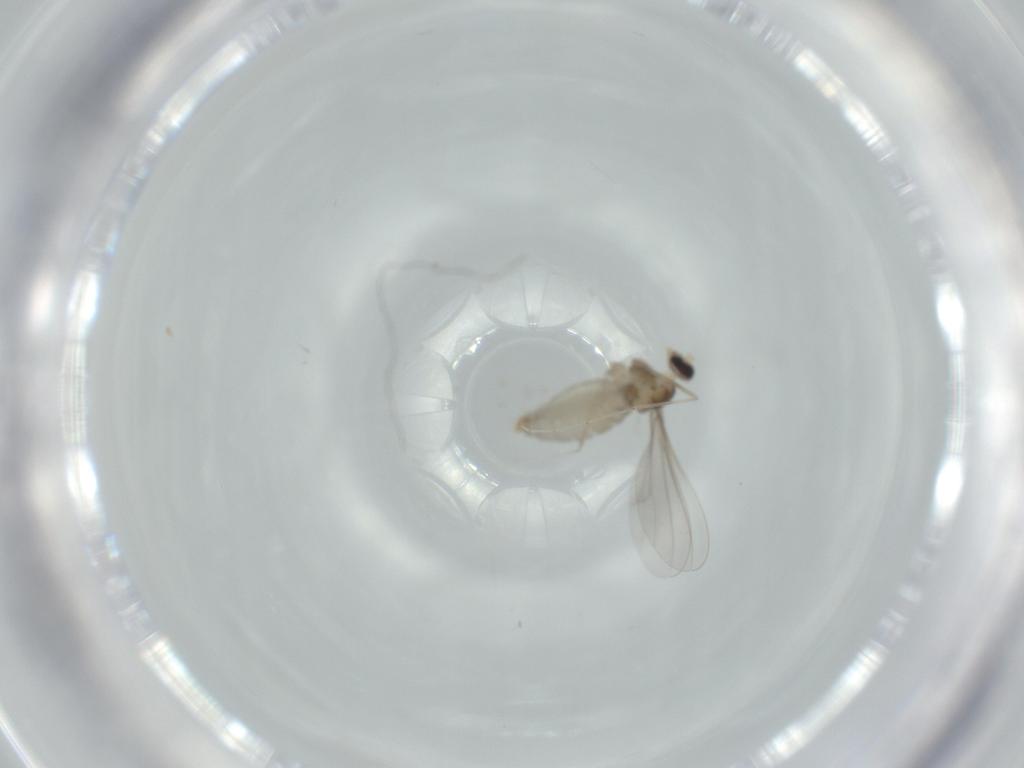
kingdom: Animalia
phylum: Arthropoda
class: Insecta
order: Diptera
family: Cecidomyiidae
